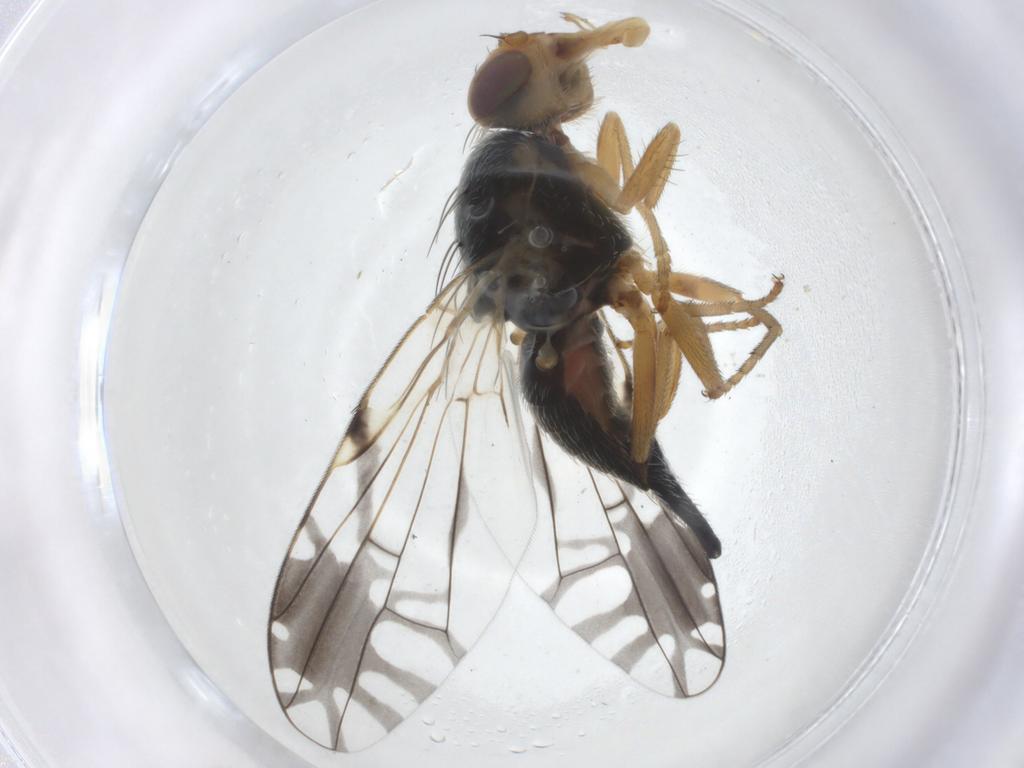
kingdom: Animalia
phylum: Arthropoda
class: Insecta
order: Diptera
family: Tephritidae
